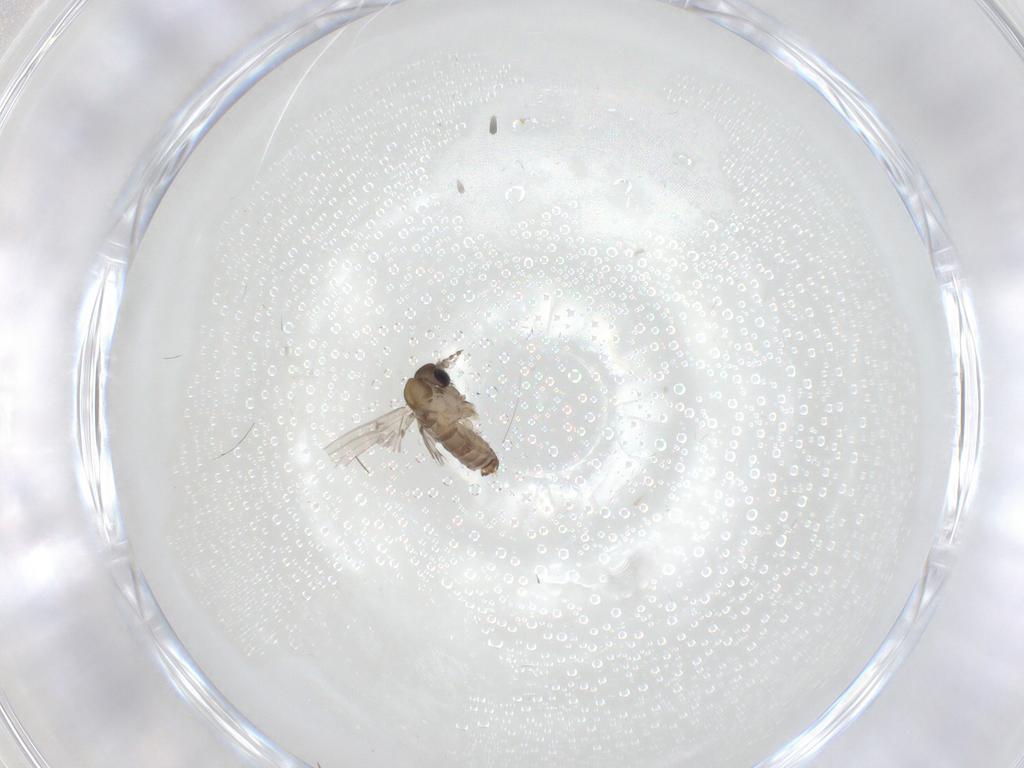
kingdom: Animalia
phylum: Arthropoda
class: Insecta
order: Diptera
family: Psychodidae
